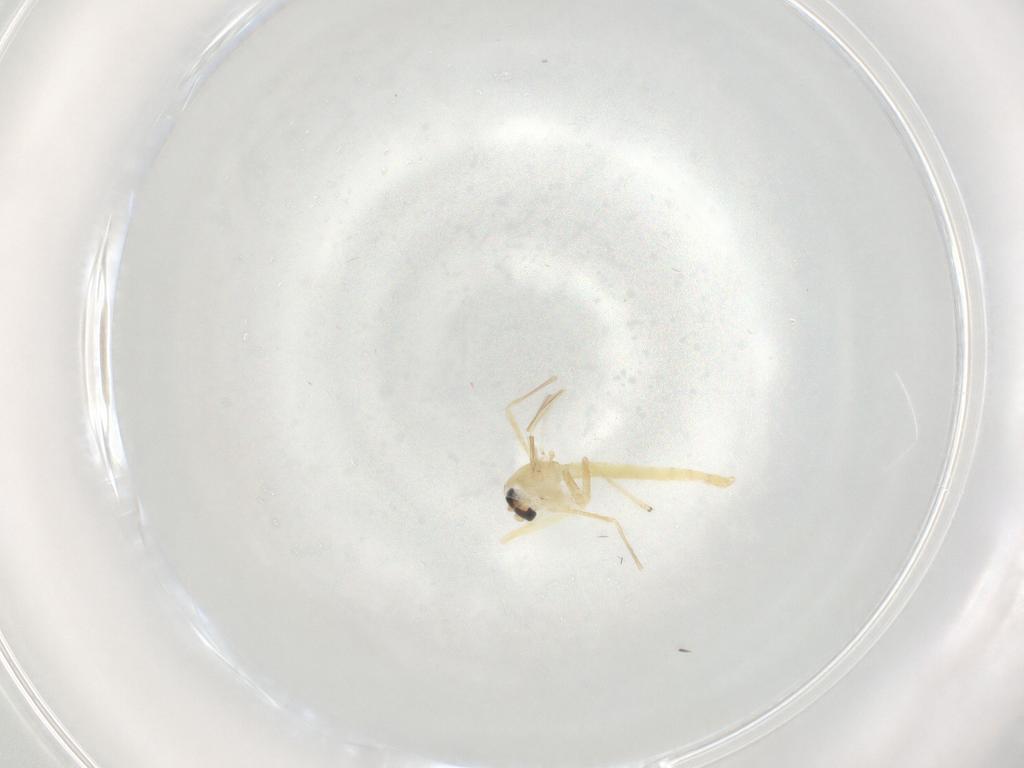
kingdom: Animalia
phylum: Arthropoda
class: Insecta
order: Diptera
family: Chironomidae
